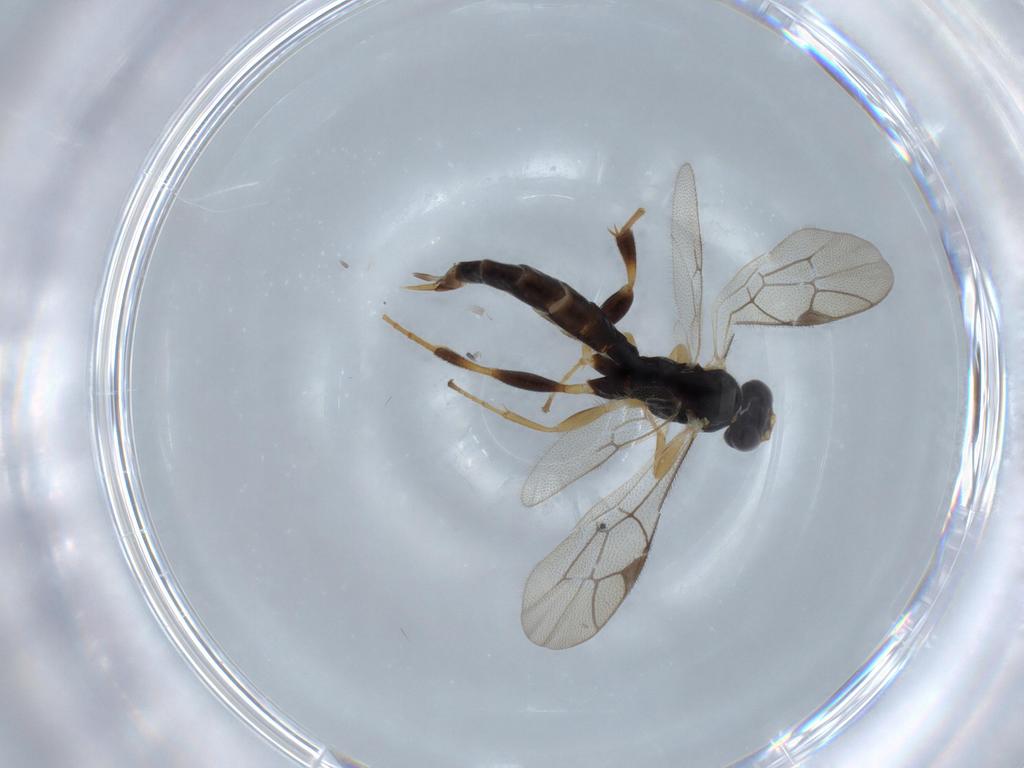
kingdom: Animalia
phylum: Arthropoda
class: Insecta
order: Hymenoptera
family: Ichneumonidae
